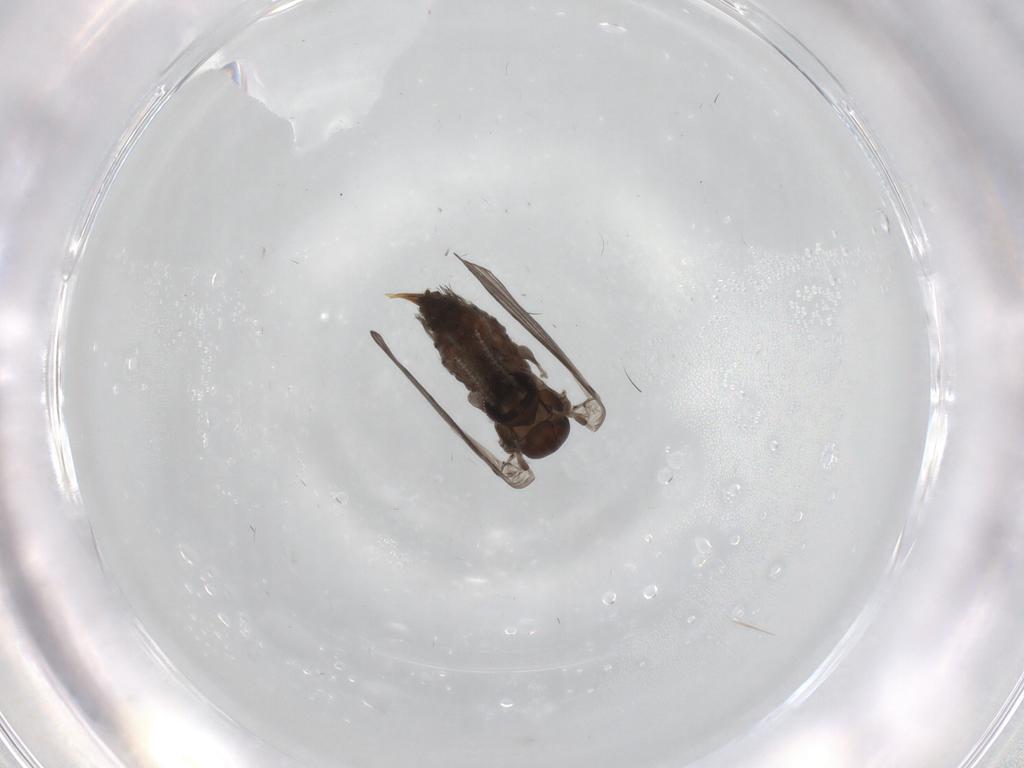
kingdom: Animalia
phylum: Arthropoda
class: Insecta
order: Diptera
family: Psychodidae
